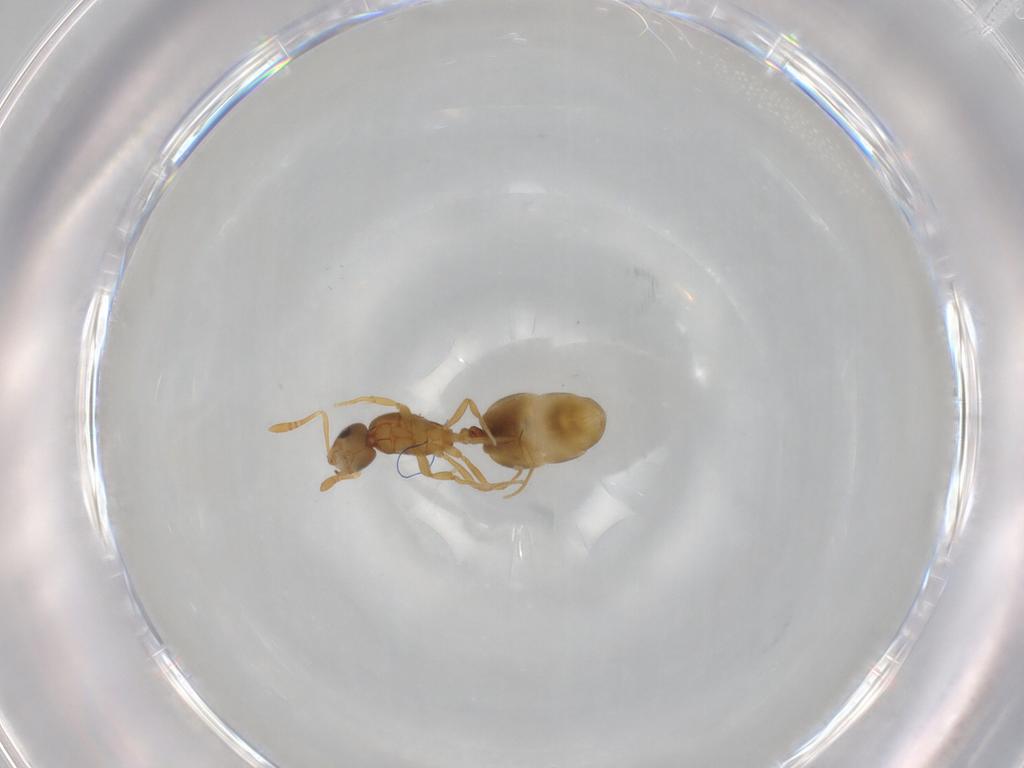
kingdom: Animalia
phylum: Arthropoda
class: Insecta
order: Hymenoptera
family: Formicidae
